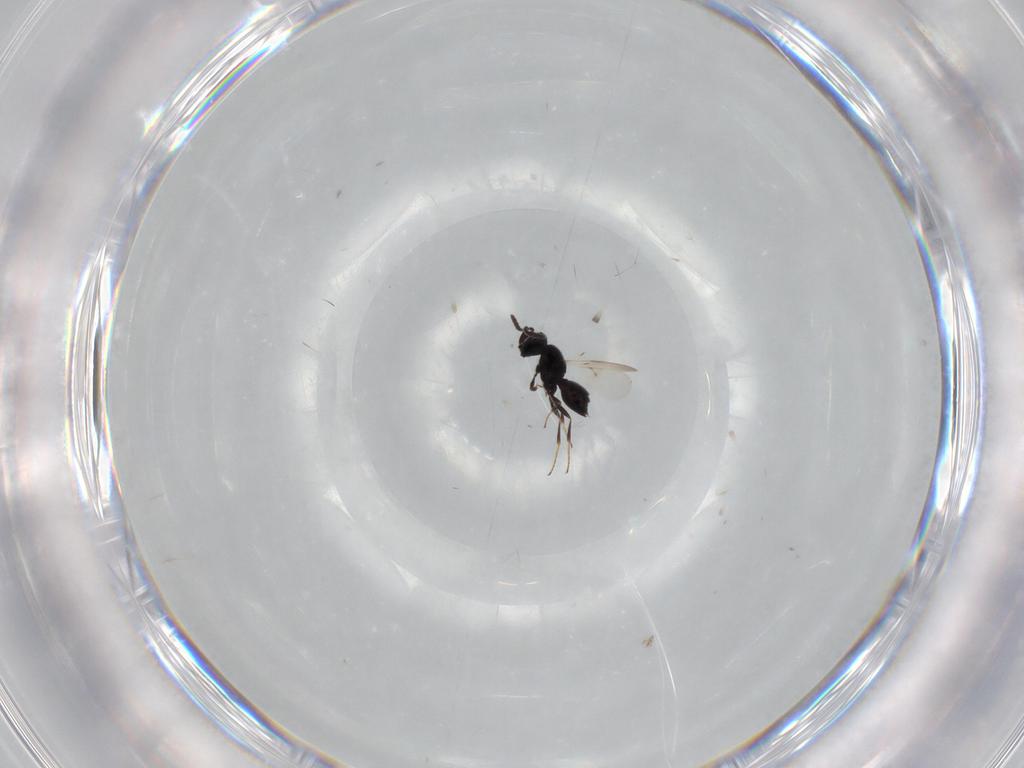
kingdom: Animalia
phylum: Arthropoda
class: Insecta
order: Hymenoptera
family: Scelionidae
